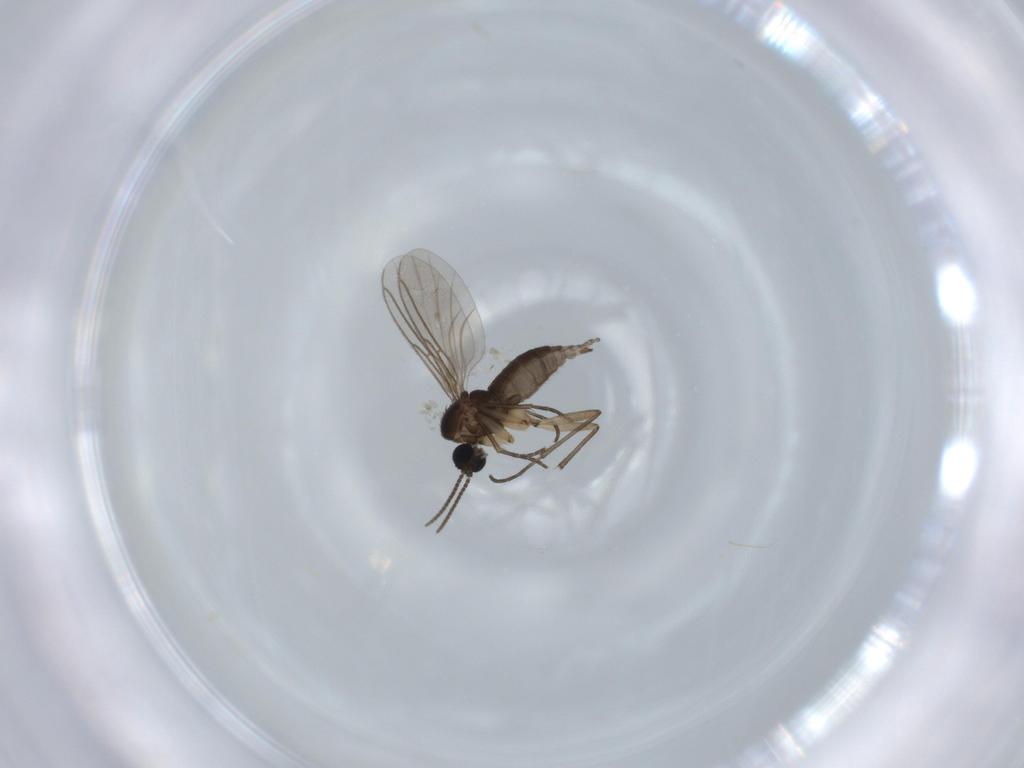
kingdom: Animalia
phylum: Arthropoda
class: Insecta
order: Diptera
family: Sciaridae
